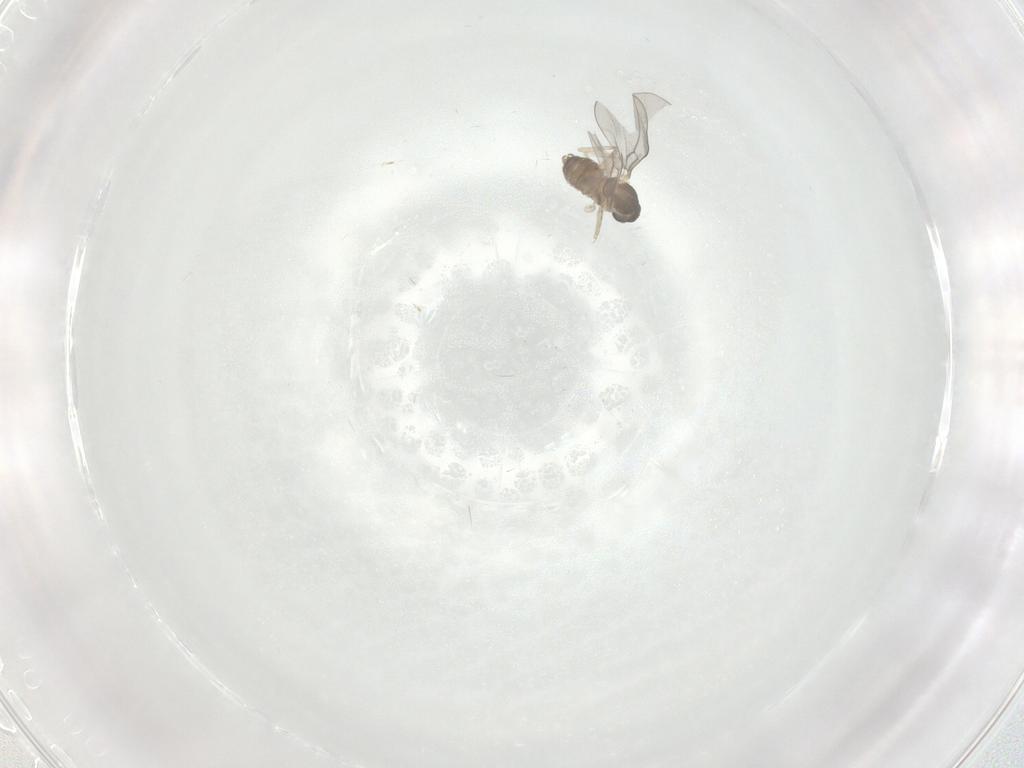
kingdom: Animalia
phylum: Arthropoda
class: Insecta
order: Diptera
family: Cecidomyiidae
